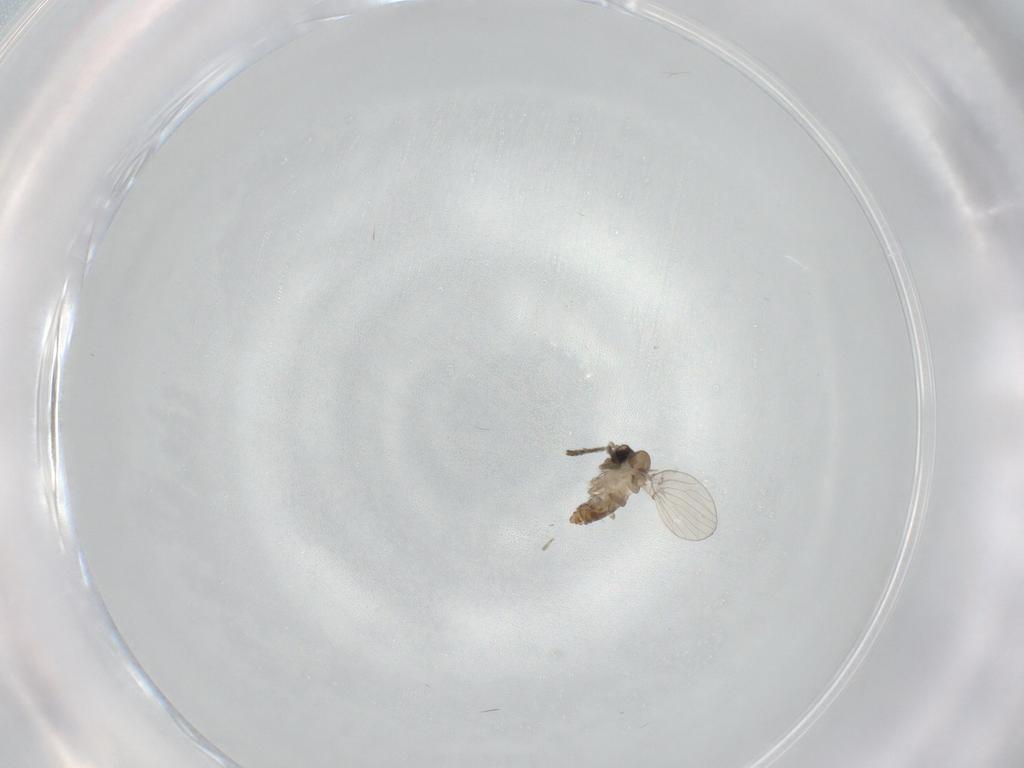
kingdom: Animalia
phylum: Arthropoda
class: Insecta
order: Diptera
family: Psychodidae
